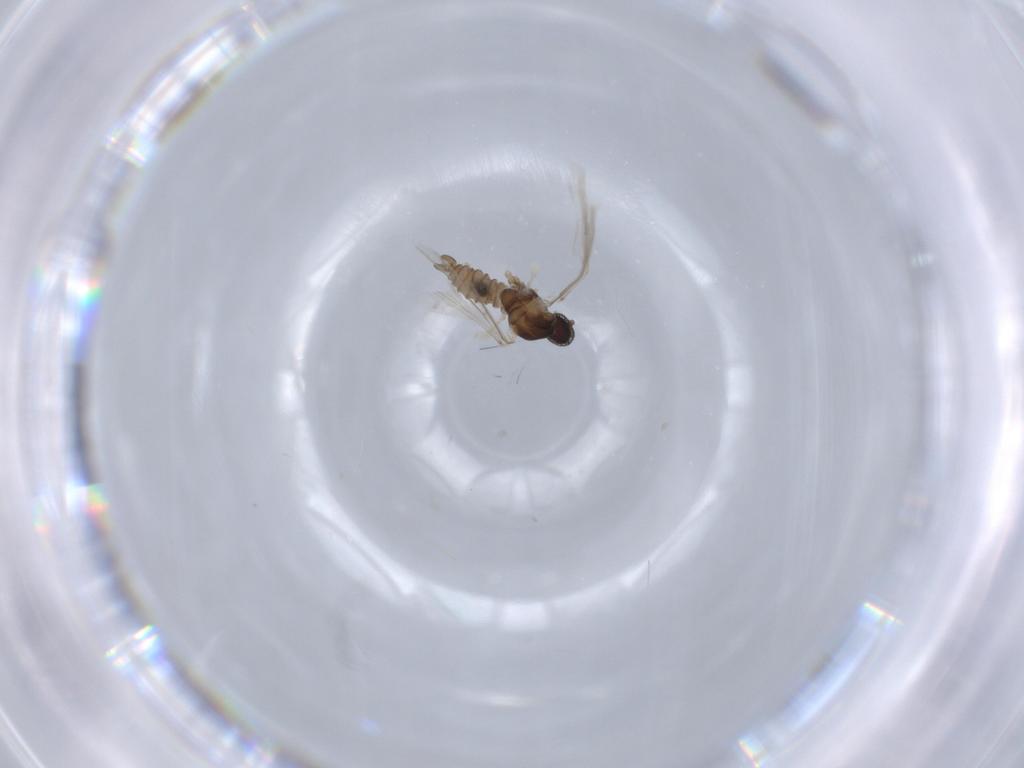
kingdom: Animalia
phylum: Arthropoda
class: Insecta
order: Diptera
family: Cecidomyiidae
